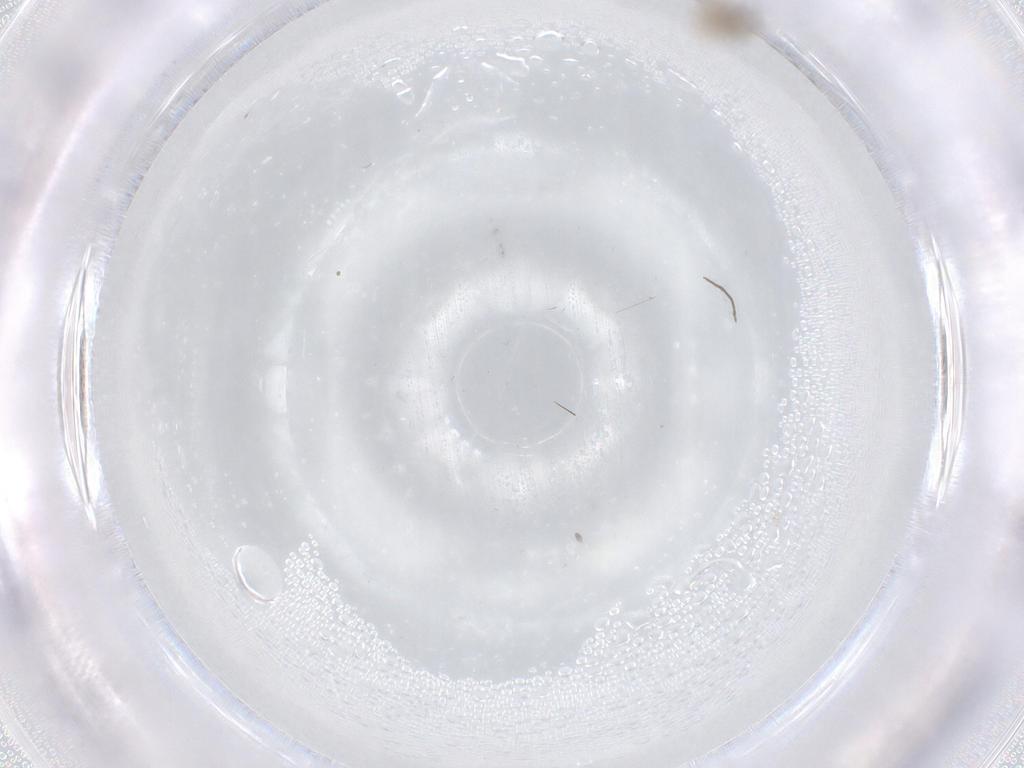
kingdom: Animalia
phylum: Arthropoda
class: Insecta
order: Diptera
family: Cecidomyiidae
